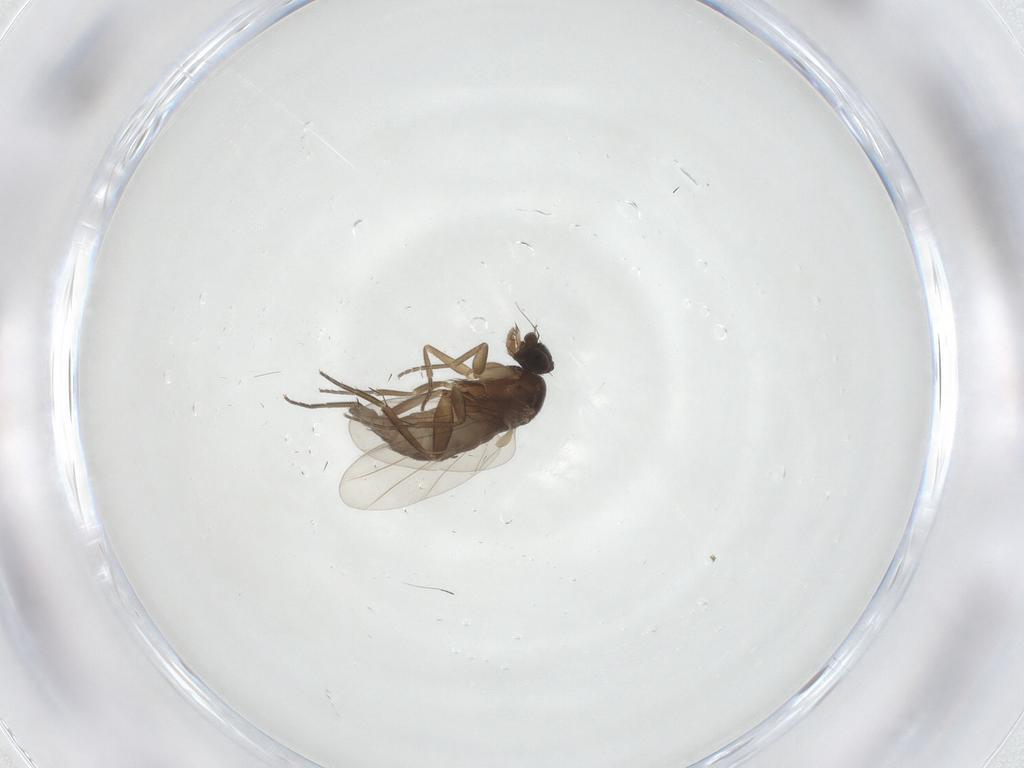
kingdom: Animalia
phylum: Arthropoda
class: Insecta
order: Diptera
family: Phoridae
